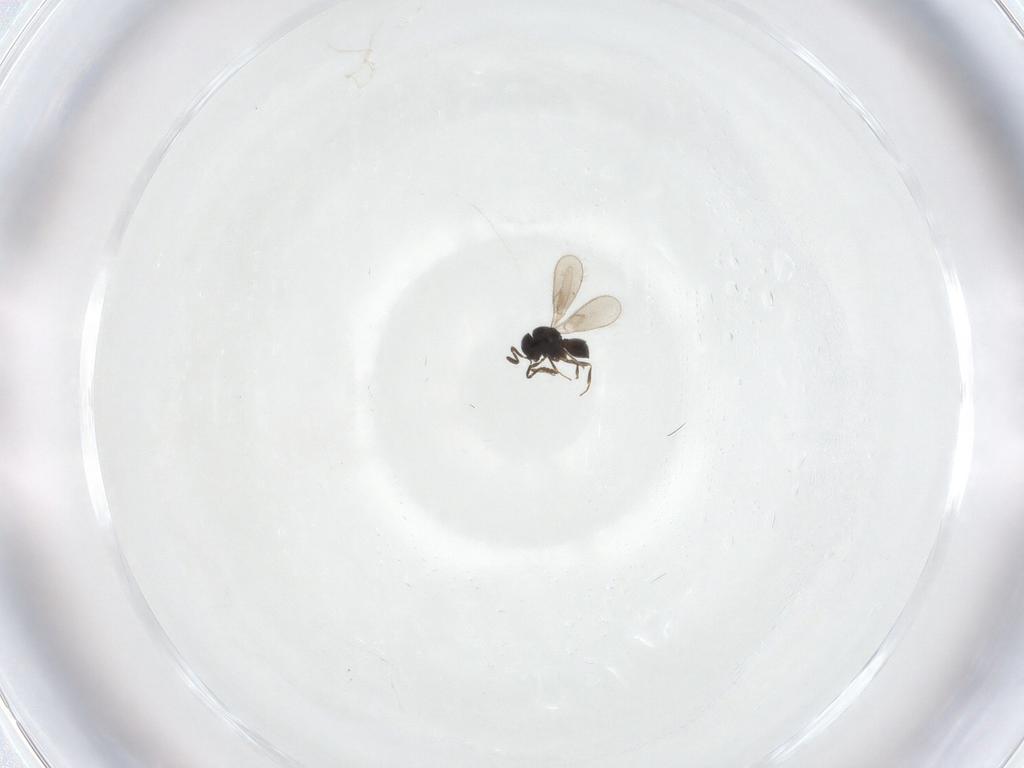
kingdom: Animalia
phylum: Arthropoda
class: Insecta
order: Hymenoptera
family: Scelionidae
